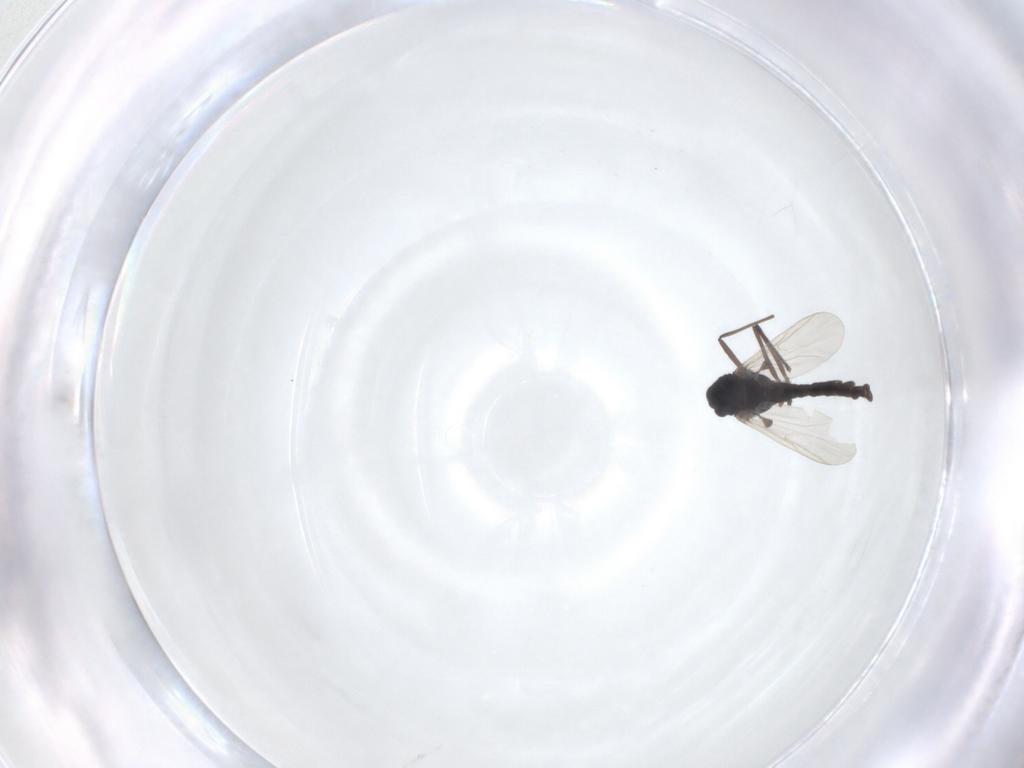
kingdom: Animalia
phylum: Arthropoda
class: Insecta
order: Diptera
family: Chironomidae
